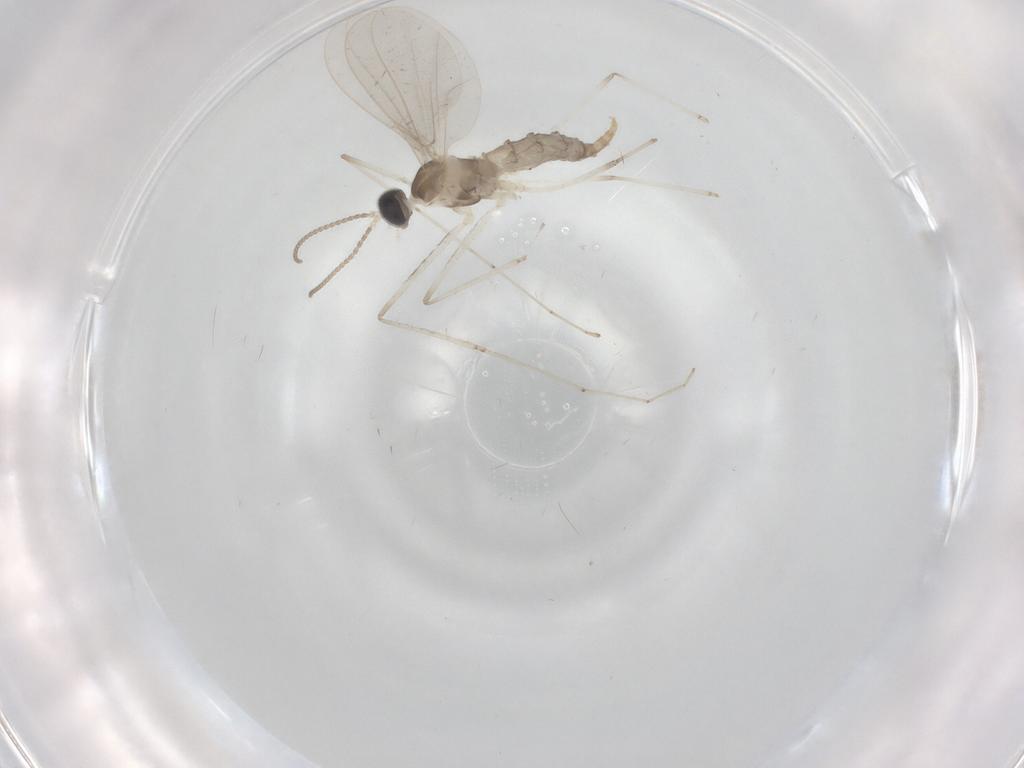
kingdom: Animalia
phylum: Arthropoda
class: Insecta
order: Diptera
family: Cecidomyiidae
